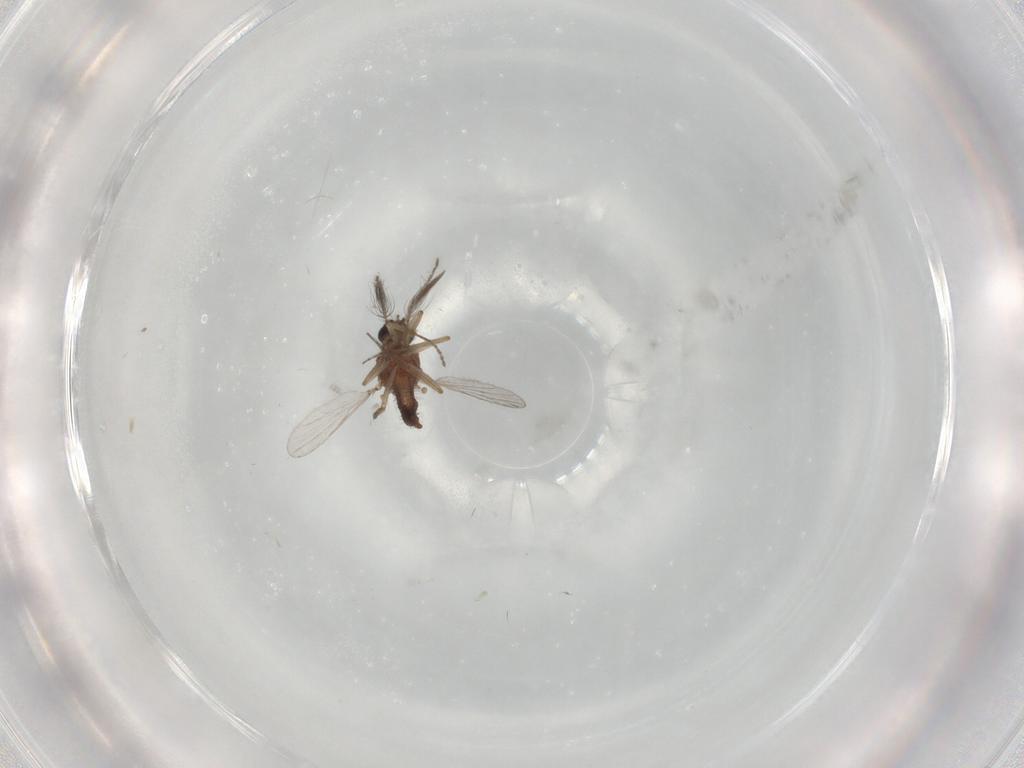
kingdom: Animalia
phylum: Arthropoda
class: Insecta
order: Diptera
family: Ceratopogonidae
